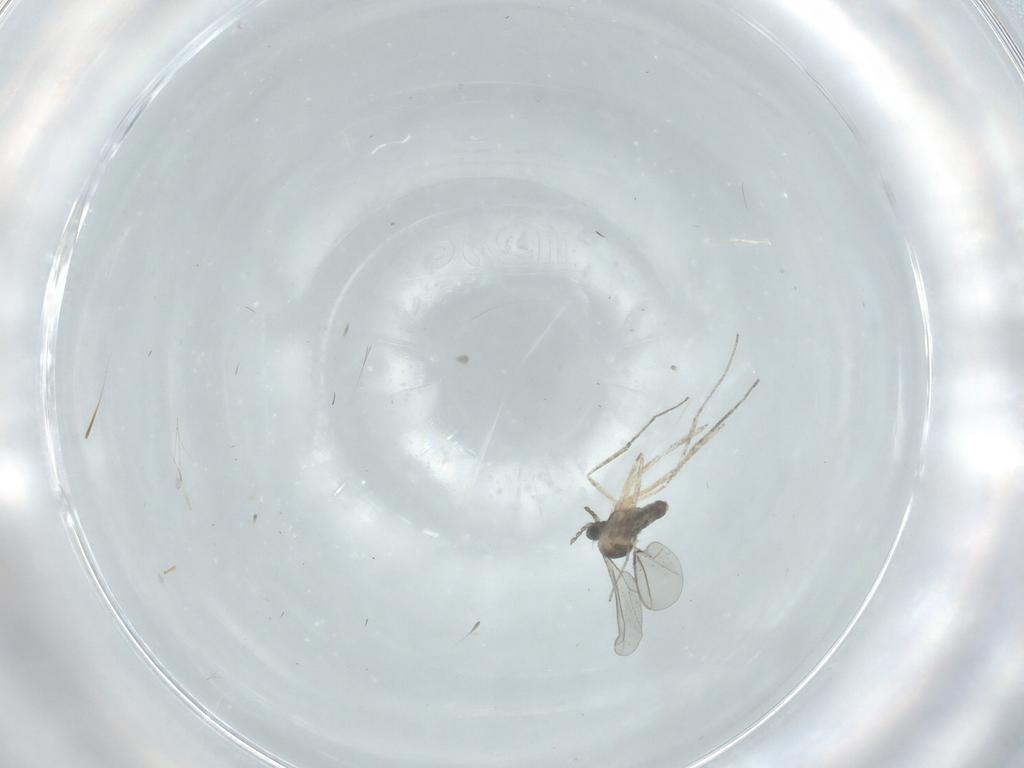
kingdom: Animalia
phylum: Arthropoda
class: Insecta
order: Diptera
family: Cecidomyiidae
